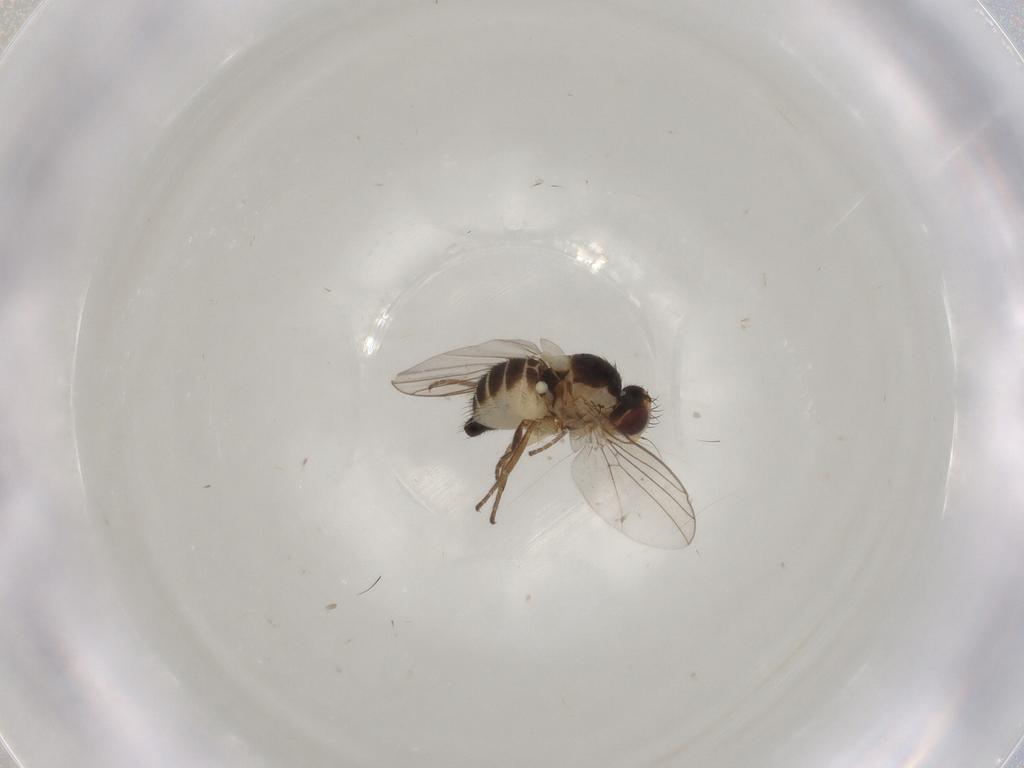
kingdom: Animalia
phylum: Arthropoda
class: Insecta
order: Diptera
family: Agromyzidae
